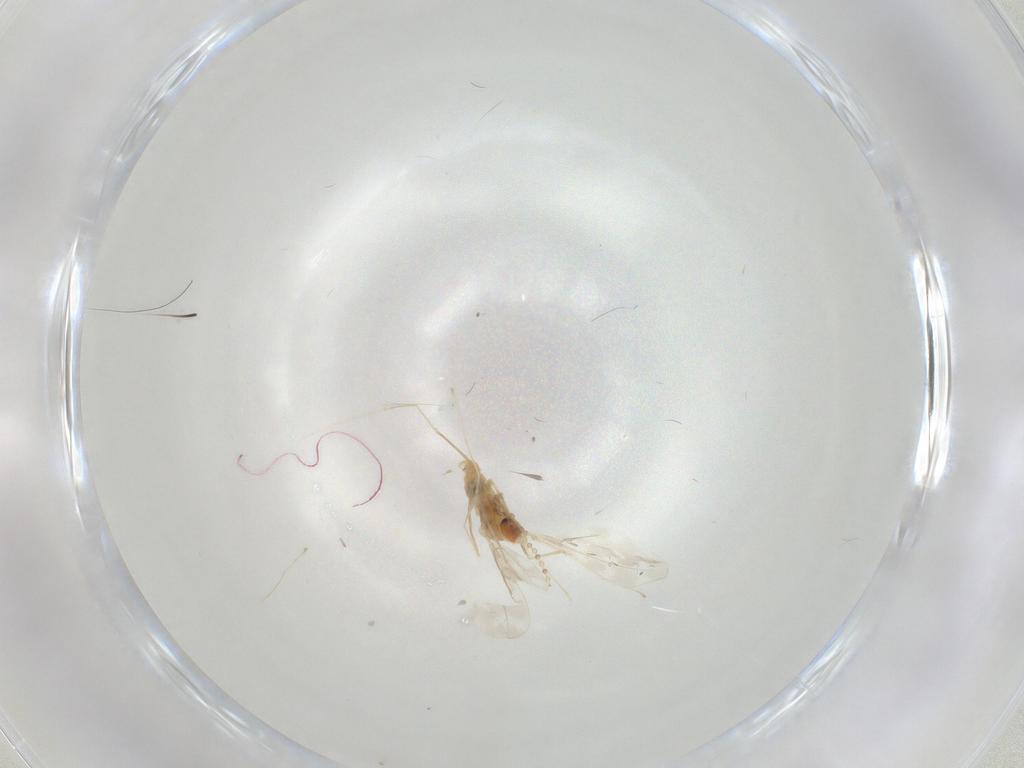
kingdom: Animalia
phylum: Arthropoda
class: Insecta
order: Diptera
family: Cecidomyiidae
